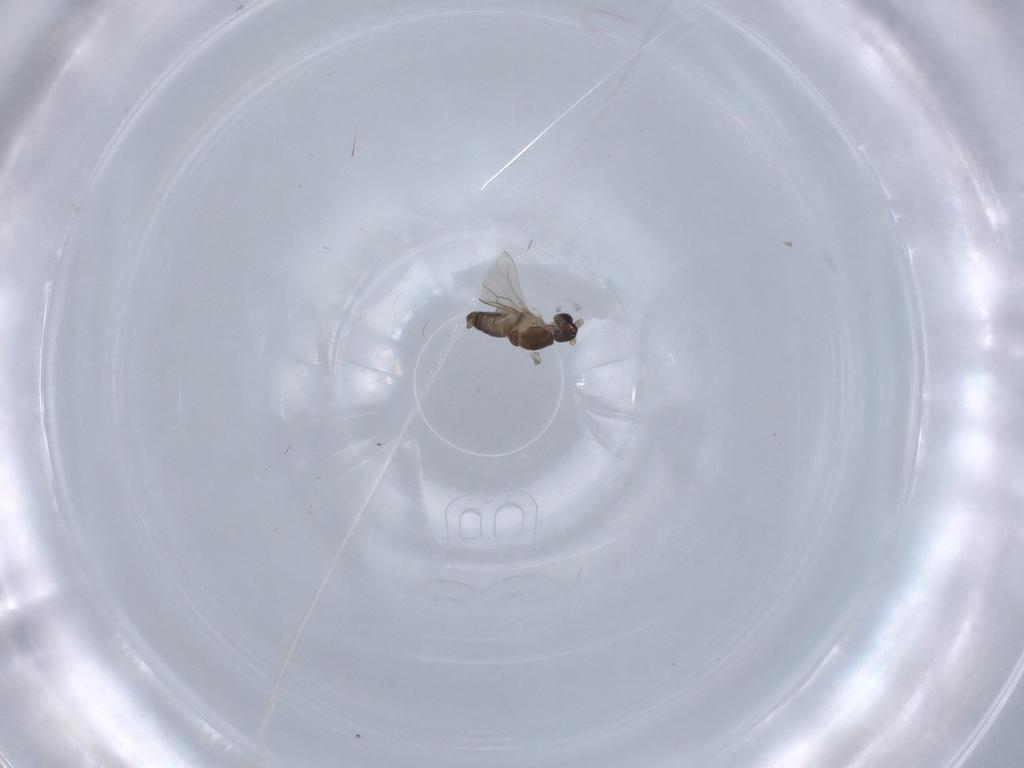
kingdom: Animalia
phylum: Arthropoda
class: Insecta
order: Diptera
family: Cecidomyiidae
